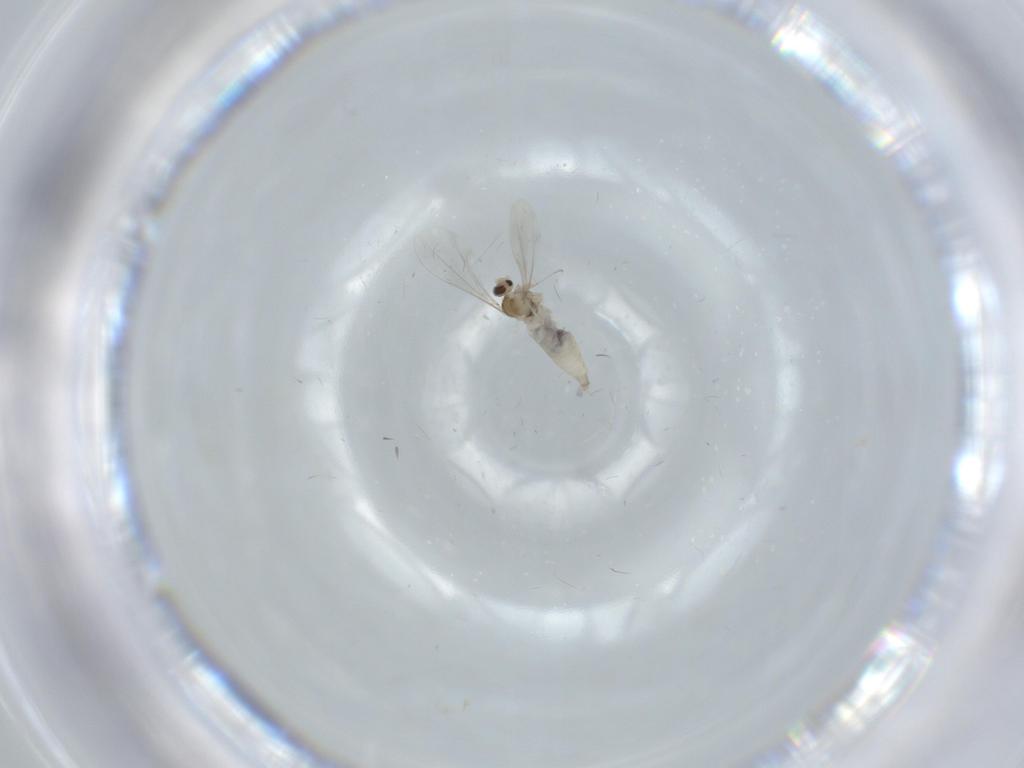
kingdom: Animalia
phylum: Arthropoda
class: Insecta
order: Diptera
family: Cecidomyiidae
